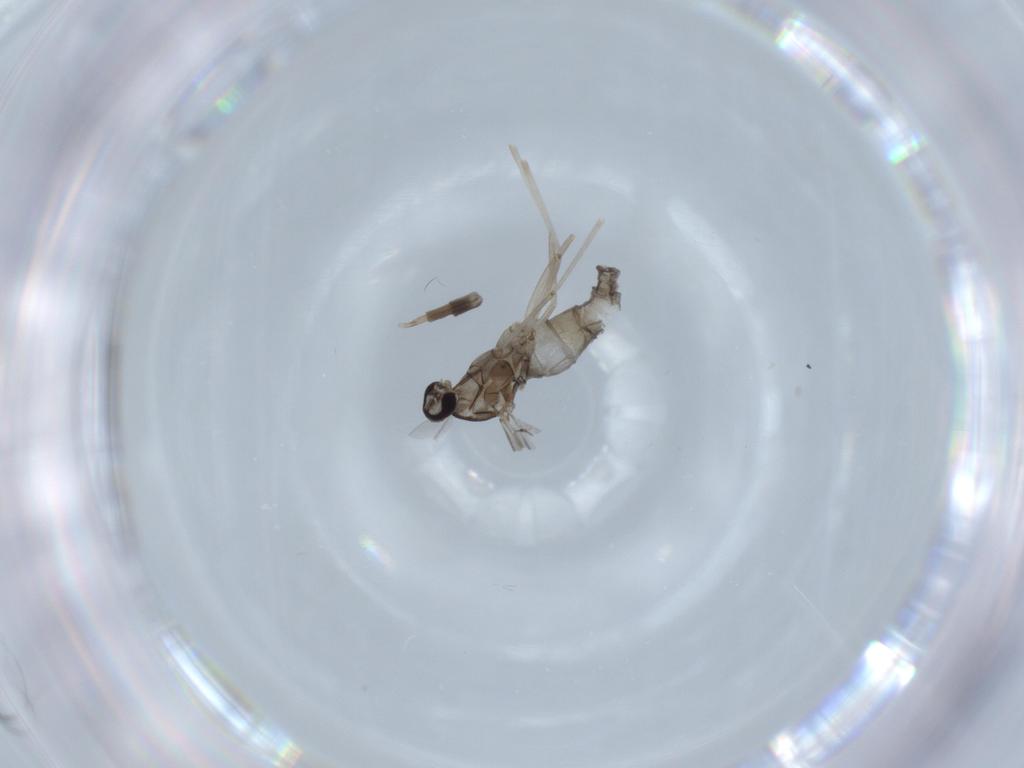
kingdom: Animalia
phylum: Arthropoda
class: Insecta
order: Diptera
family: Cecidomyiidae
